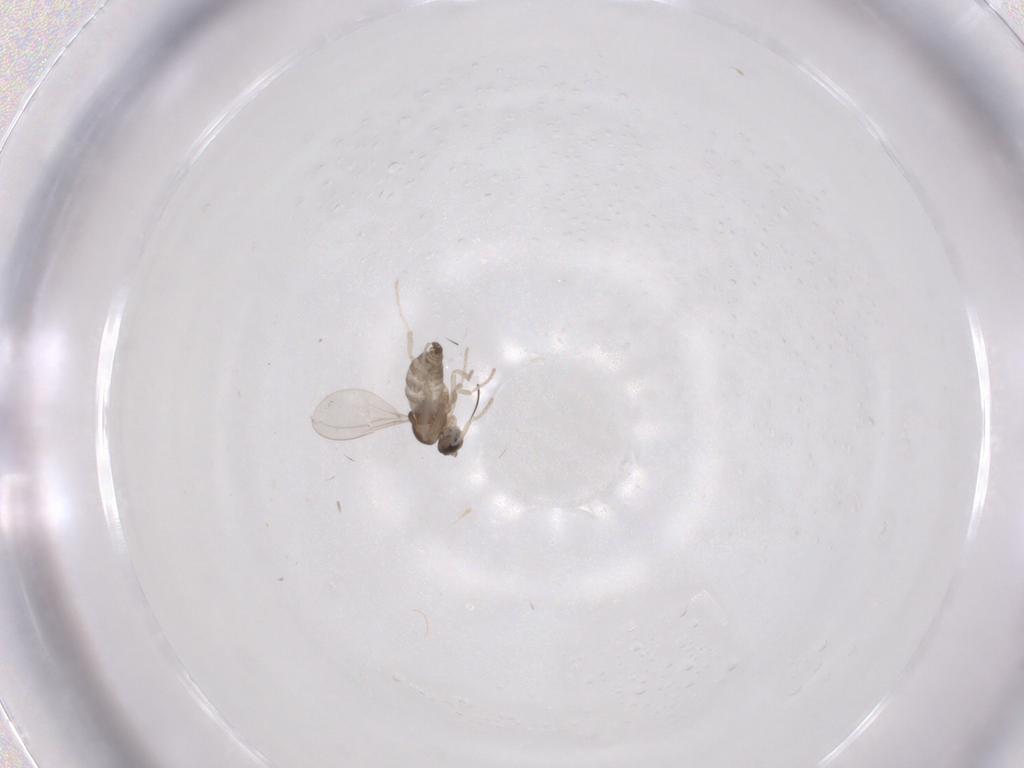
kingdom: Animalia
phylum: Arthropoda
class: Insecta
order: Diptera
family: Cecidomyiidae
